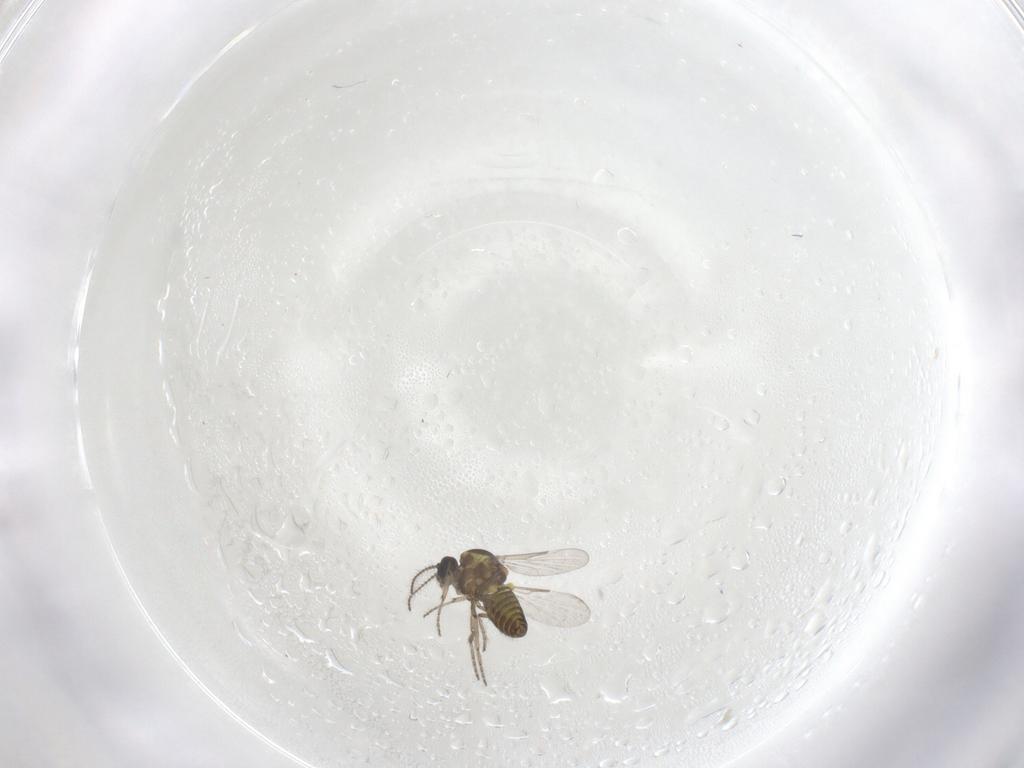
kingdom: Animalia
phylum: Arthropoda
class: Insecta
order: Diptera
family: Ceratopogonidae
